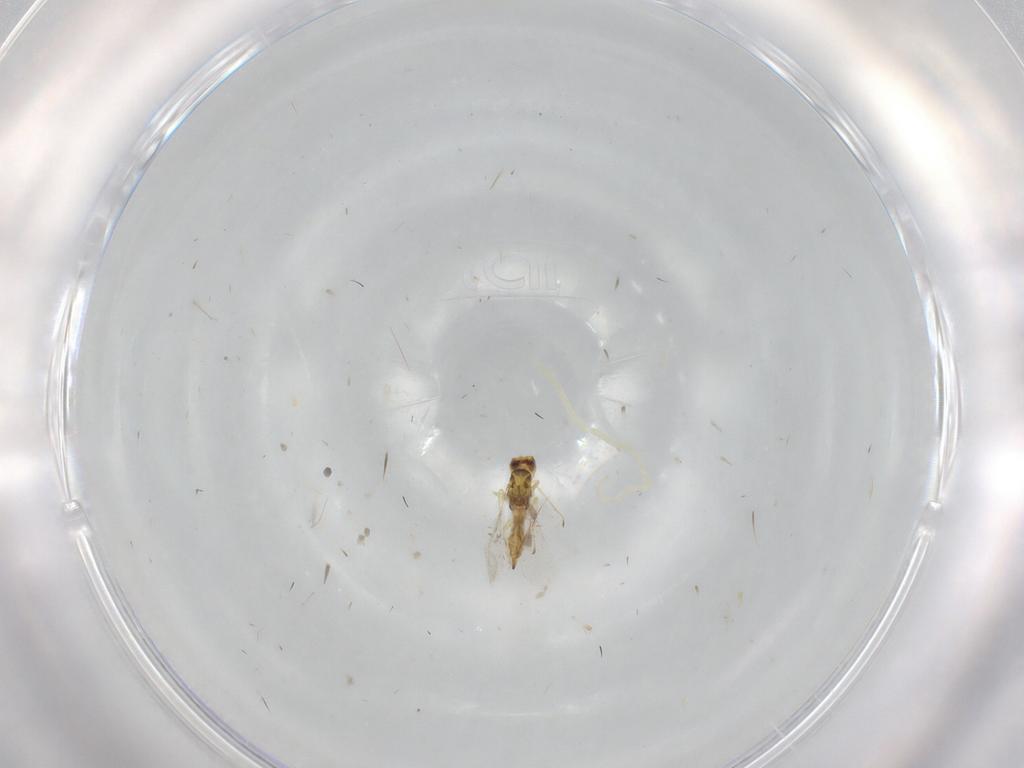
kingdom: Animalia
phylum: Arthropoda
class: Insecta
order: Hymenoptera
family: Eulophidae
